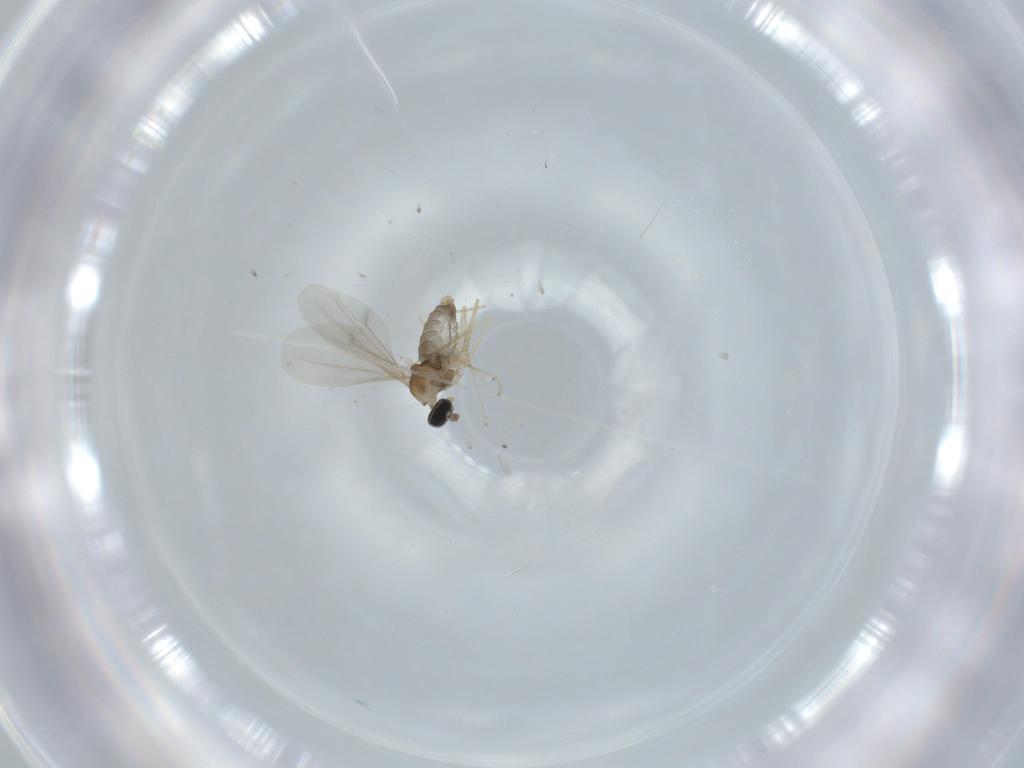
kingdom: Animalia
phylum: Arthropoda
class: Insecta
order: Diptera
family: Cecidomyiidae
